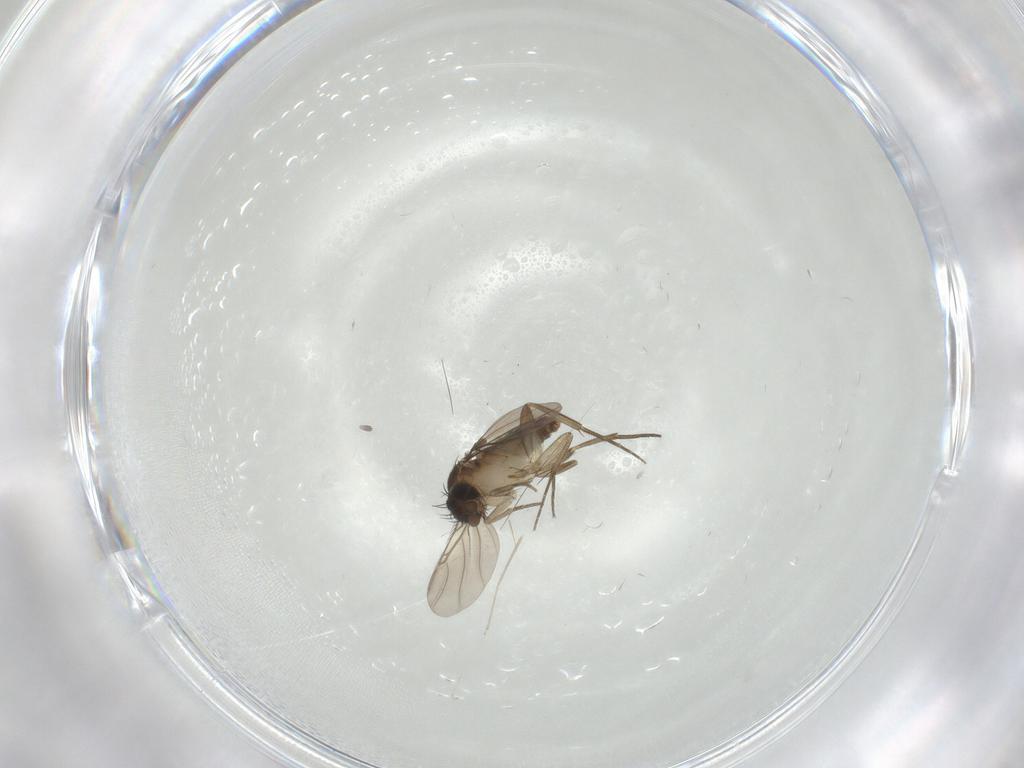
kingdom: Animalia
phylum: Arthropoda
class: Insecta
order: Diptera
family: Phoridae
